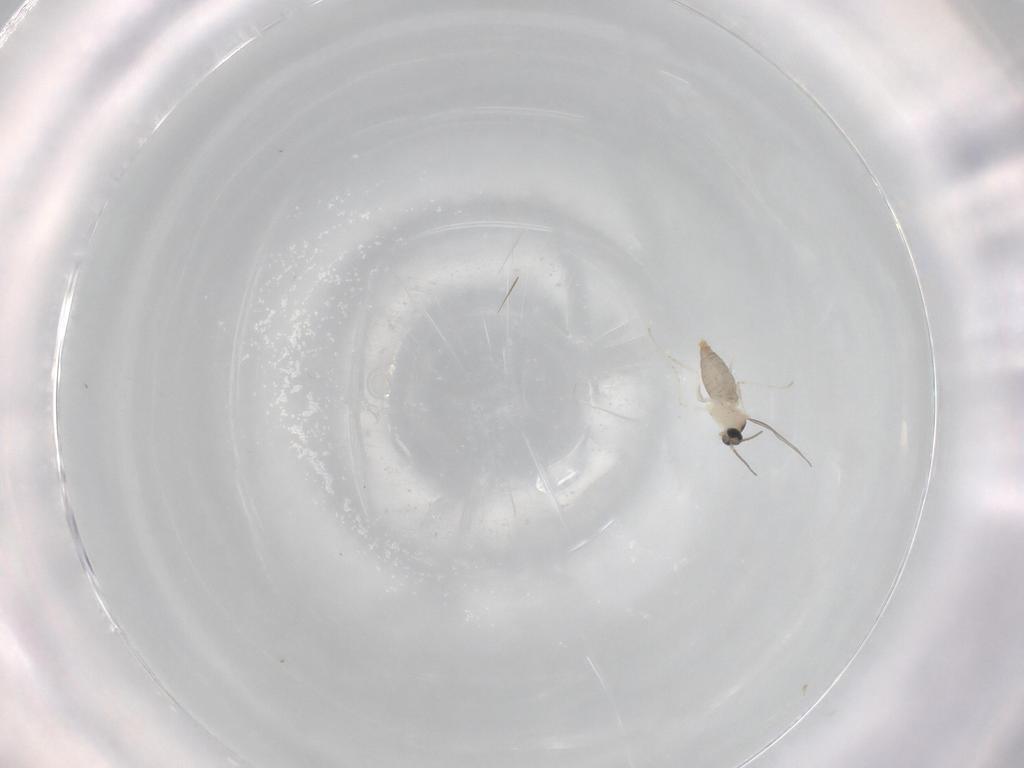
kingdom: Animalia
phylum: Arthropoda
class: Insecta
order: Diptera
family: Cecidomyiidae
